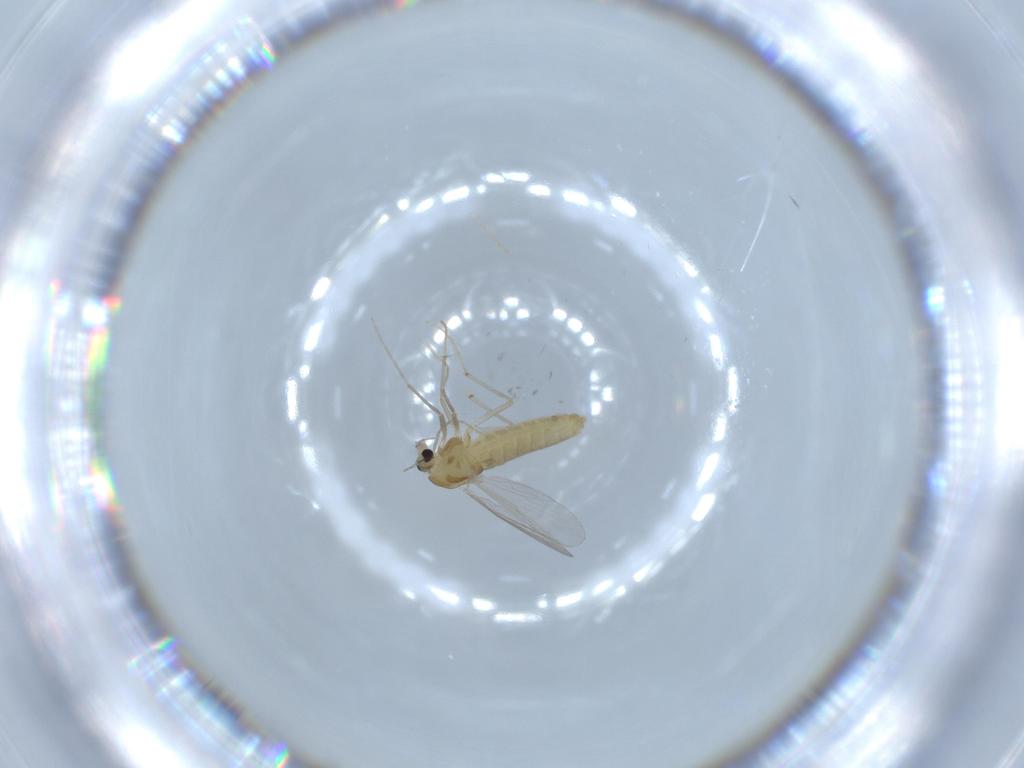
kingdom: Animalia
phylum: Arthropoda
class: Insecta
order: Diptera
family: Chironomidae
